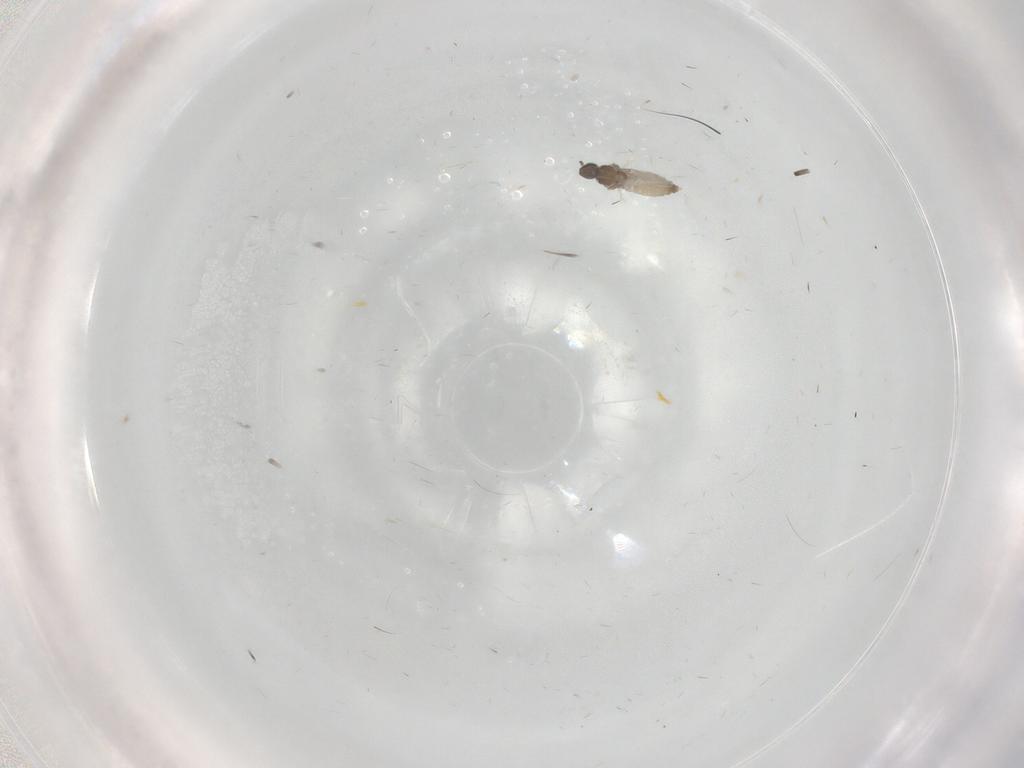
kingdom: Animalia
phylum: Arthropoda
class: Insecta
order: Diptera
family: Cecidomyiidae
